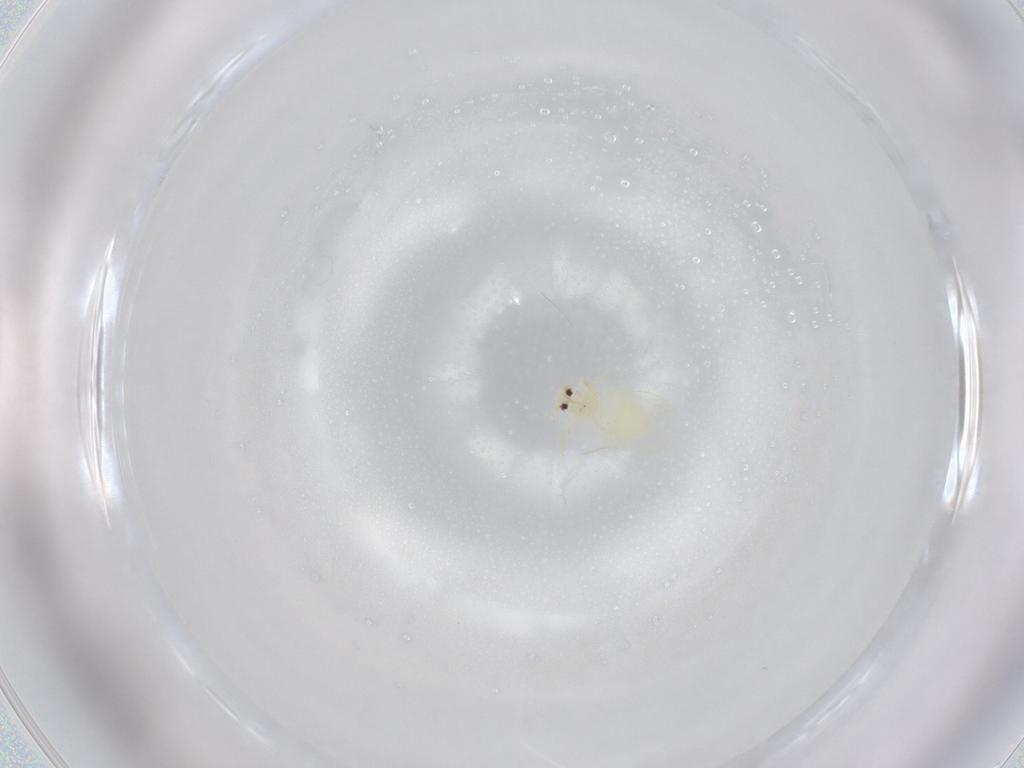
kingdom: Animalia
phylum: Arthropoda
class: Insecta
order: Hemiptera
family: Aleyrodidae
